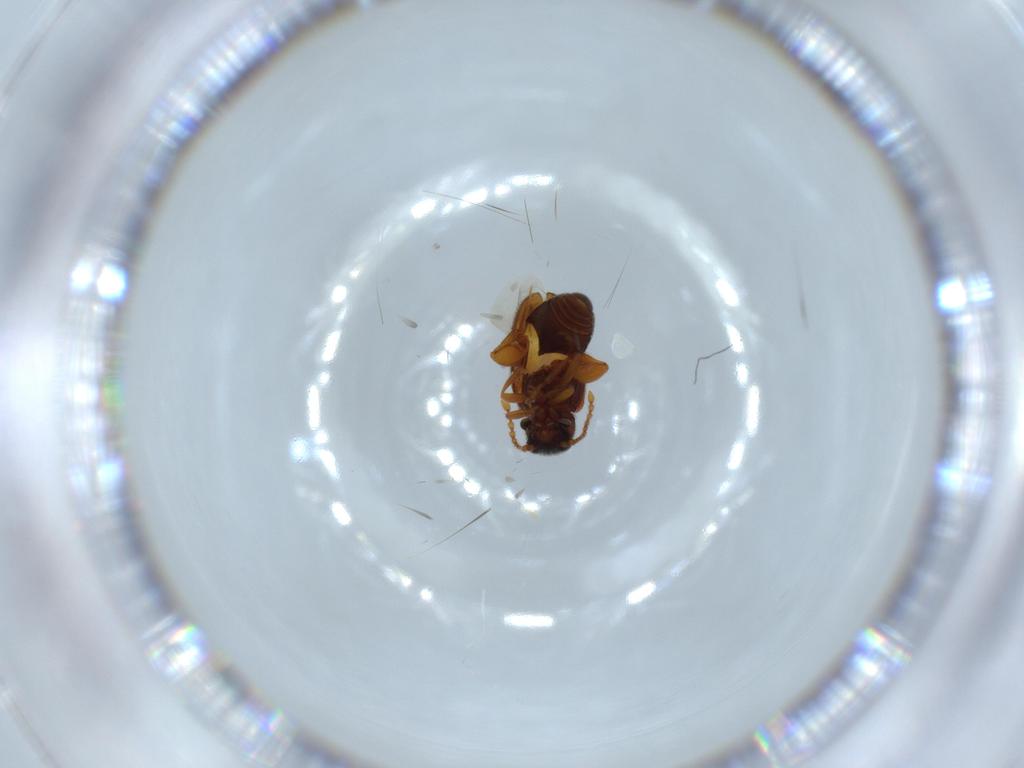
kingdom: Animalia
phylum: Arthropoda
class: Insecta
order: Coleoptera
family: Aderidae
